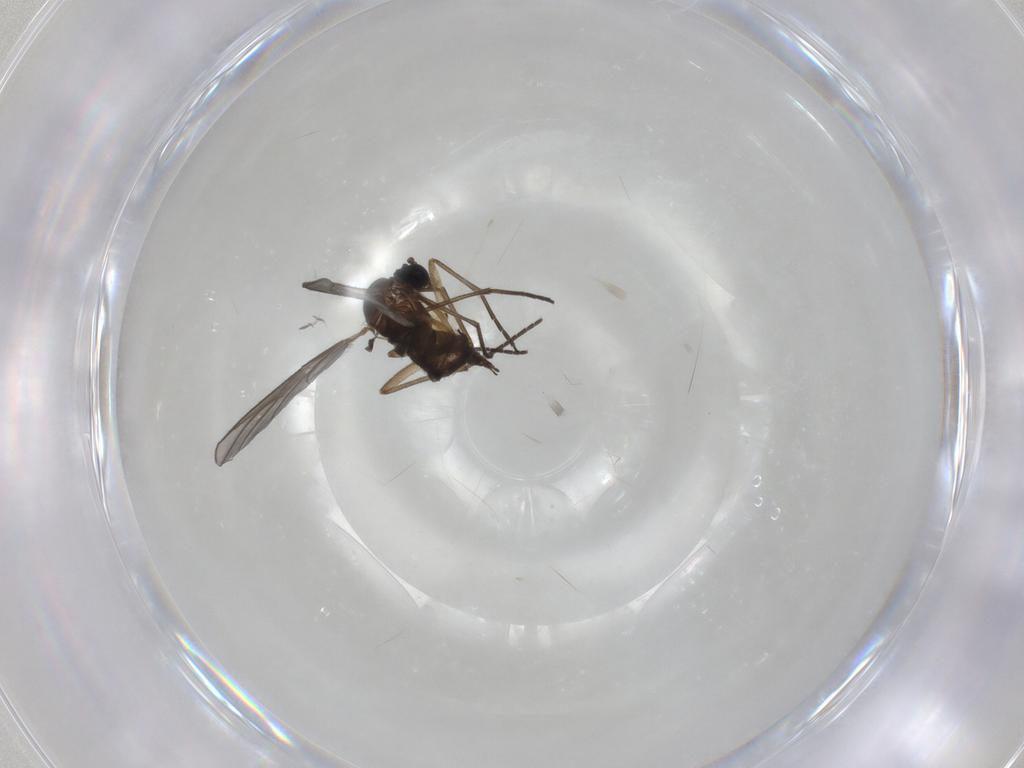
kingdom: Animalia
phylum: Arthropoda
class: Insecta
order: Diptera
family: Sciaridae
